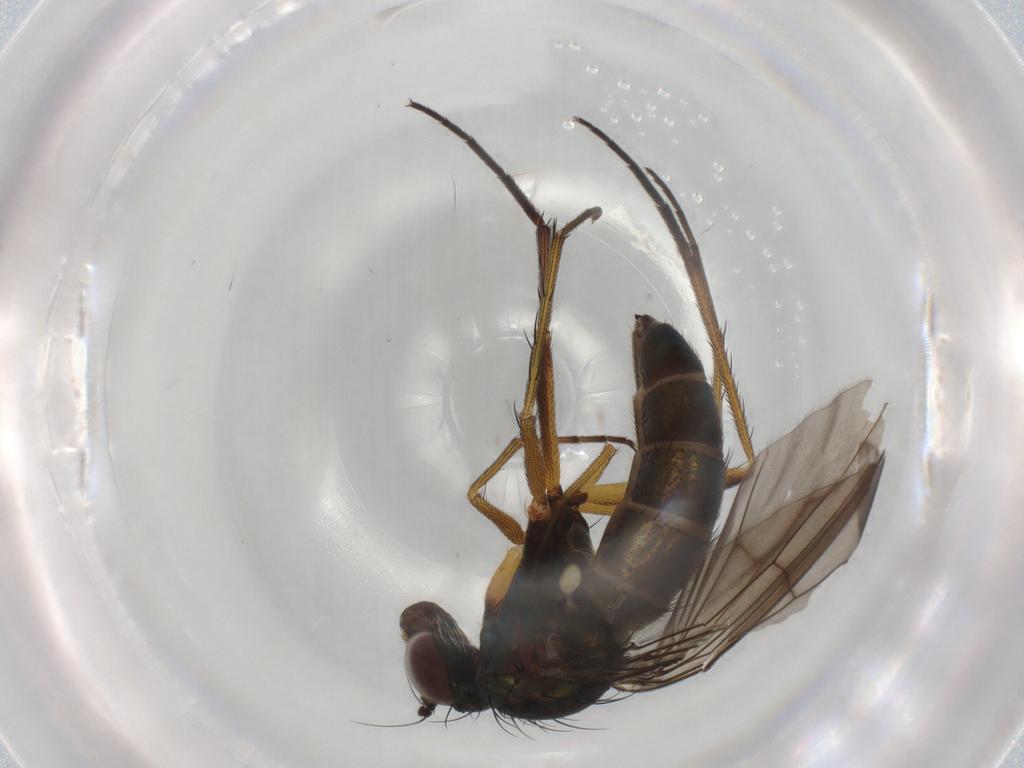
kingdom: Animalia
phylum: Arthropoda
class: Insecta
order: Diptera
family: Dolichopodidae
